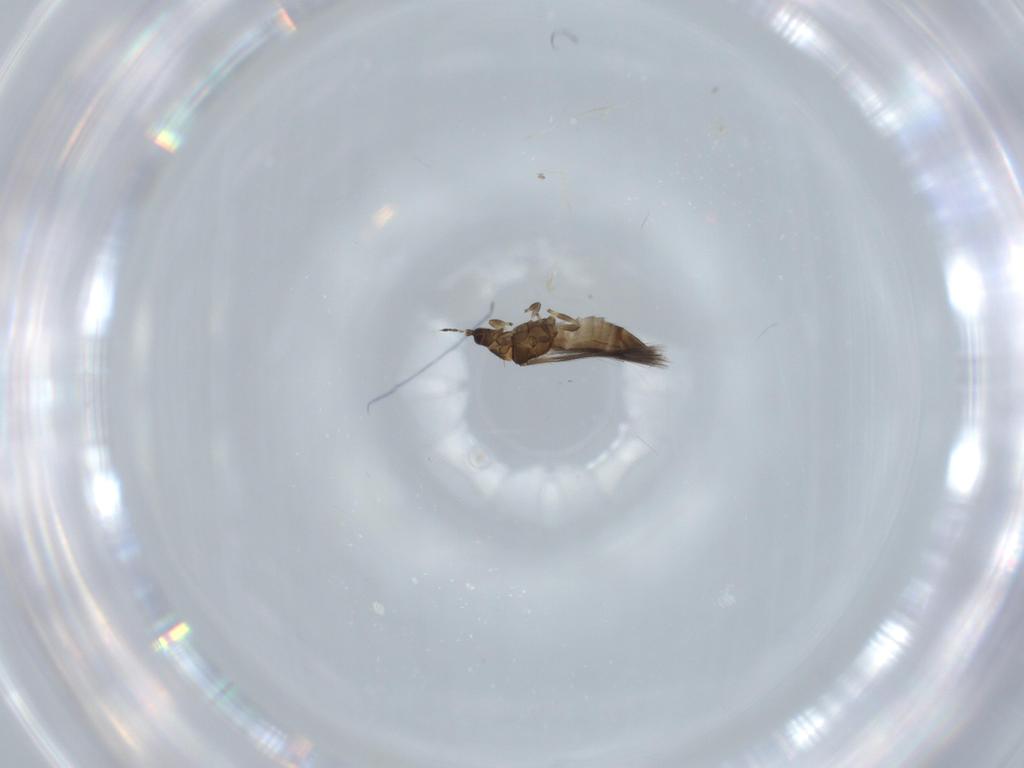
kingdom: Animalia
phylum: Arthropoda
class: Insecta
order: Thysanoptera
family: Thripidae
